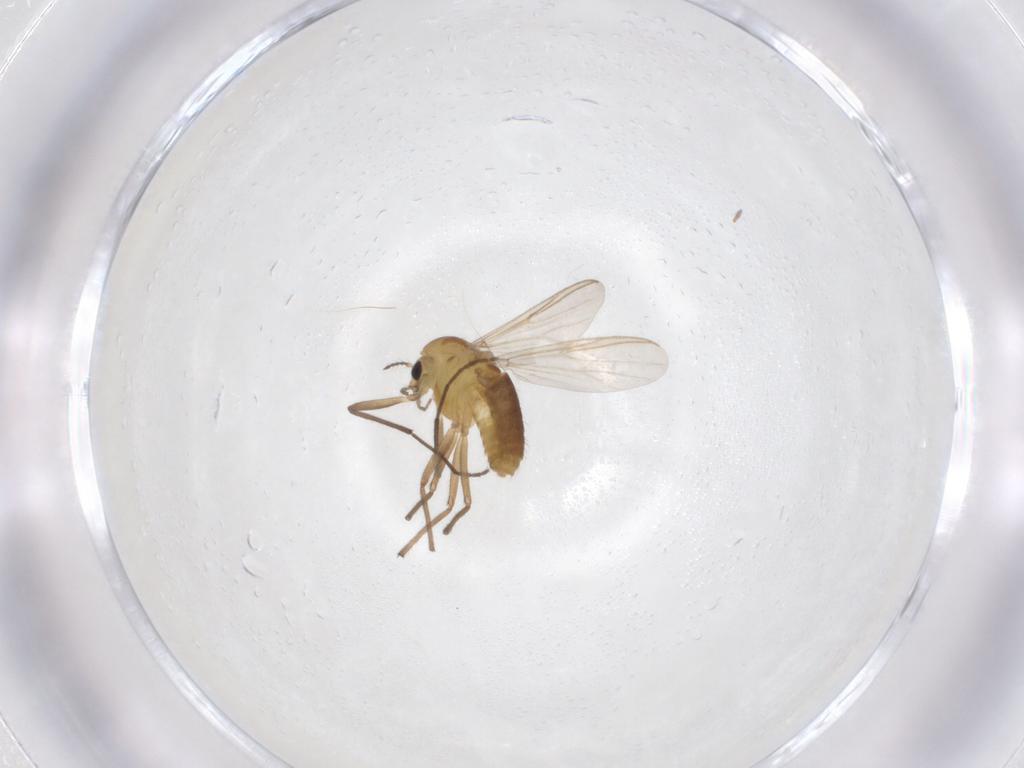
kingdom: Animalia
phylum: Arthropoda
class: Insecta
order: Diptera
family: Chironomidae
